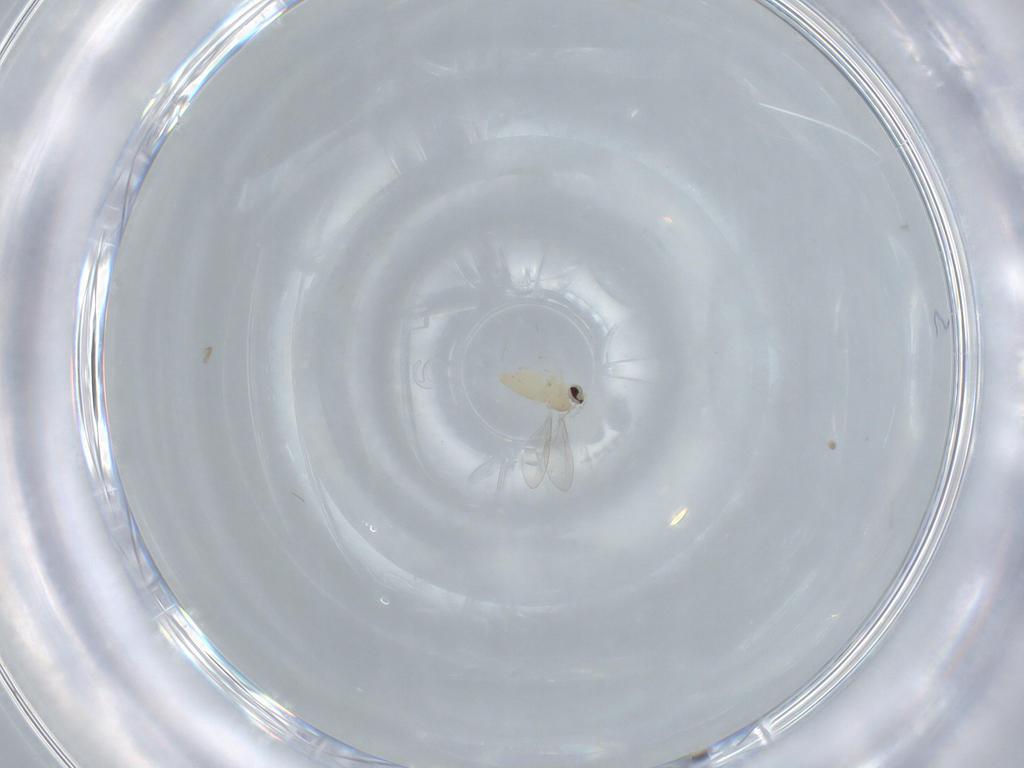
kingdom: Animalia
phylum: Arthropoda
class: Insecta
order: Diptera
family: Cecidomyiidae
